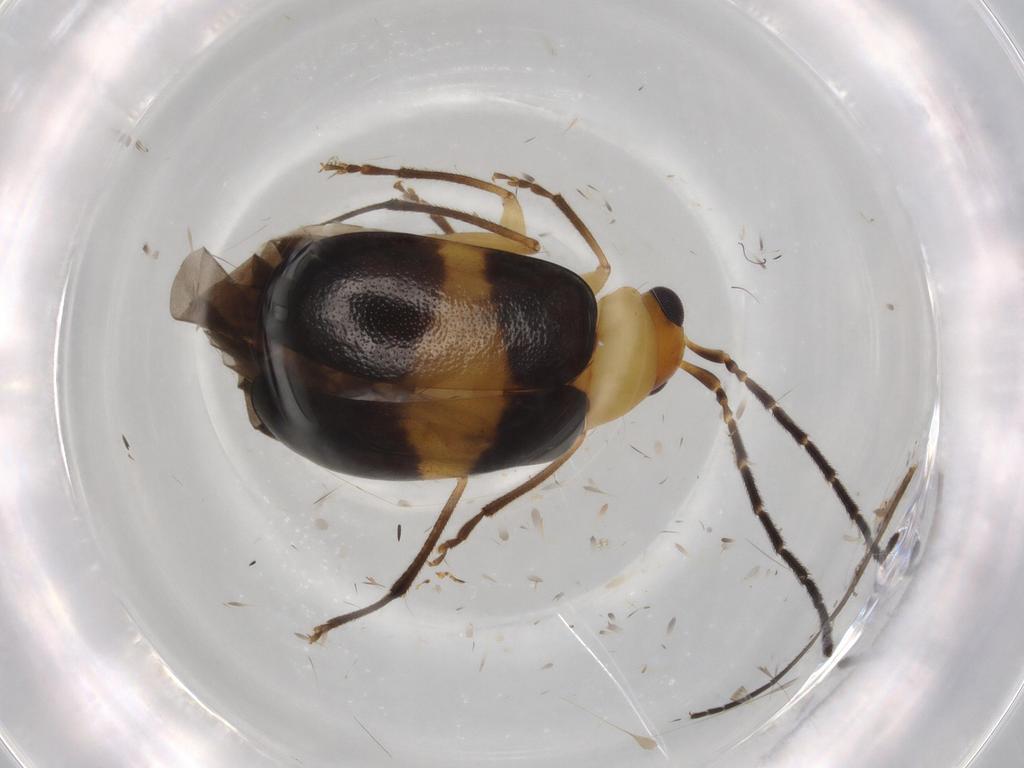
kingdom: Animalia
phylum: Arthropoda
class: Insecta
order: Coleoptera
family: Chrysomelidae
